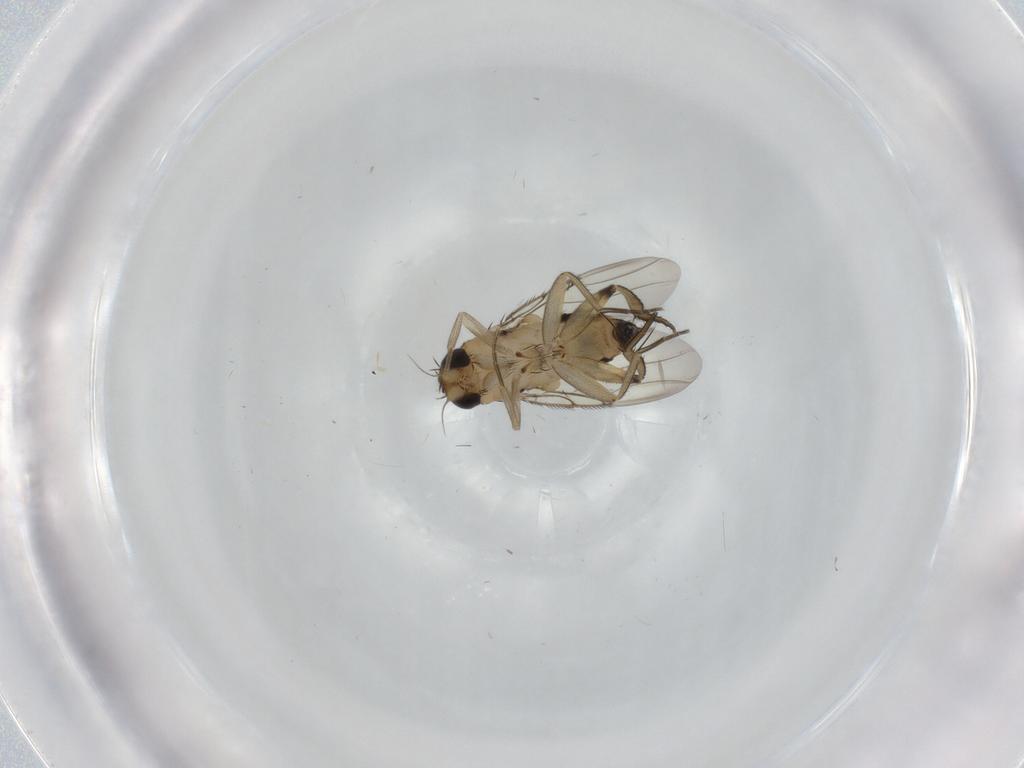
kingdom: Animalia
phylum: Arthropoda
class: Insecta
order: Diptera
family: Phoridae
